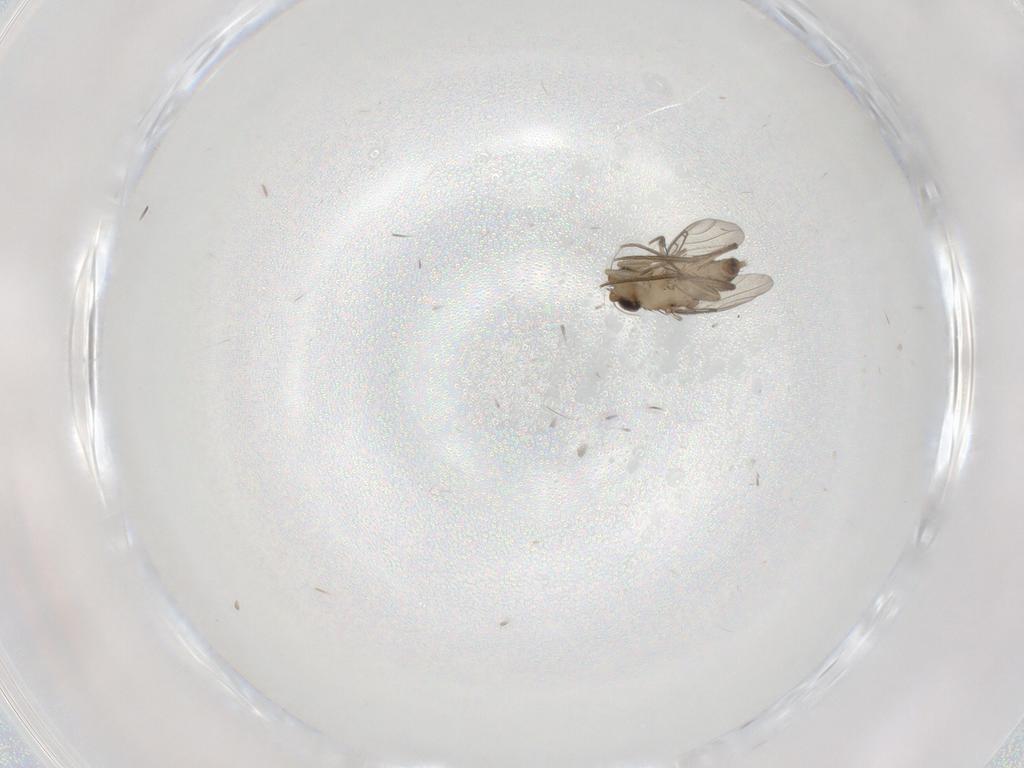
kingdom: Animalia
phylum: Arthropoda
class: Insecta
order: Diptera
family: Phoridae
